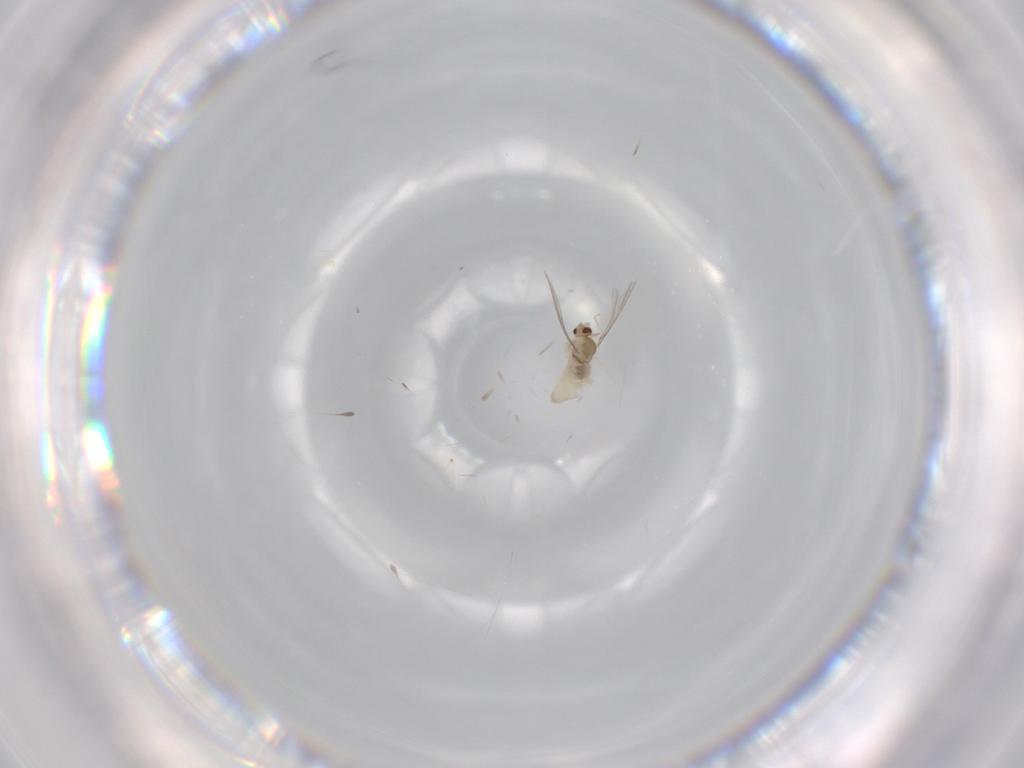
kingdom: Animalia
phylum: Arthropoda
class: Insecta
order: Diptera
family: Cecidomyiidae
